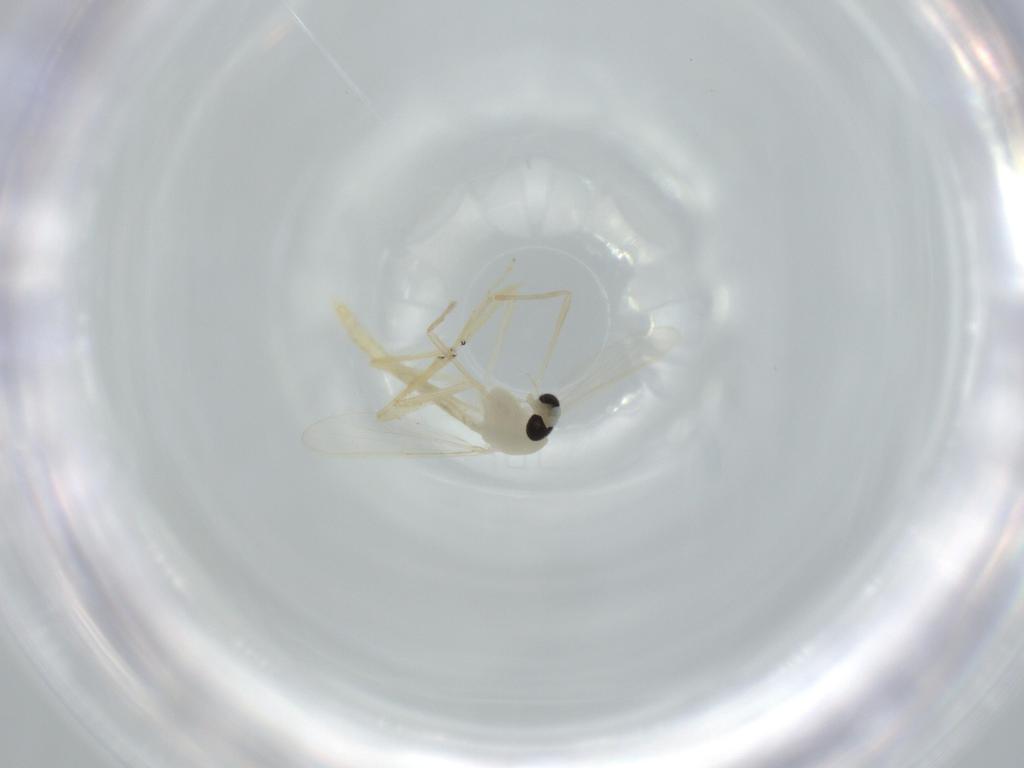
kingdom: Animalia
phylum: Arthropoda
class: Insecta
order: Diptera
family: Chironomidae
